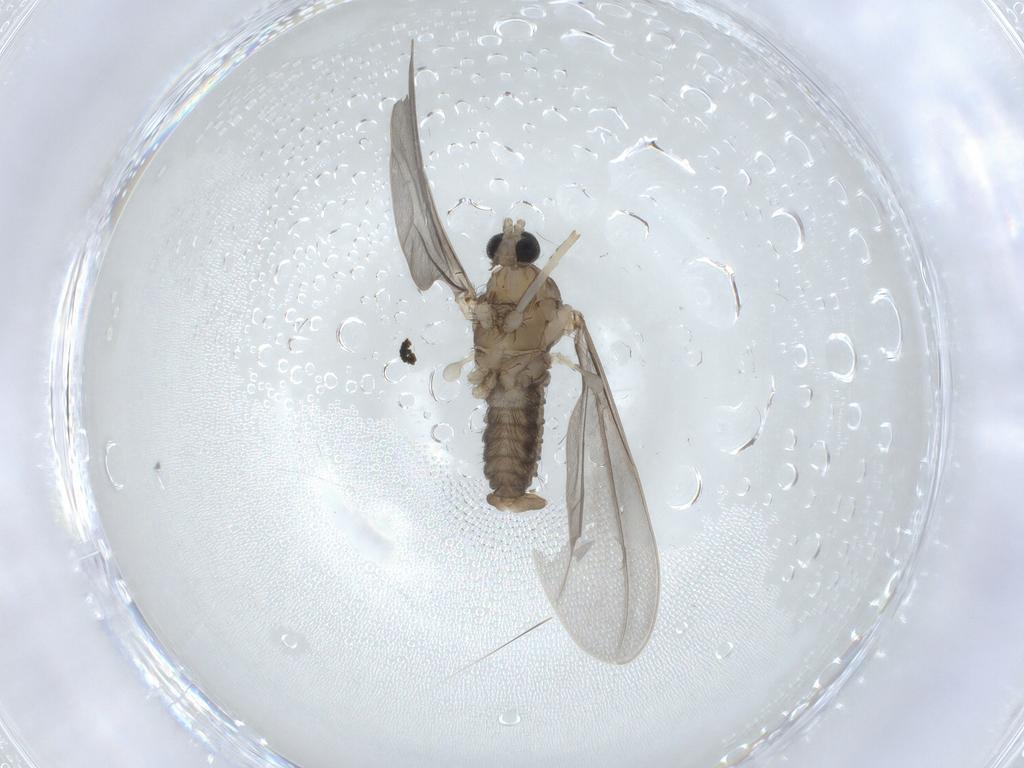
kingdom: Animalia
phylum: Arthropoda
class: Insecta
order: Diptera
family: Cecidomyiidae
